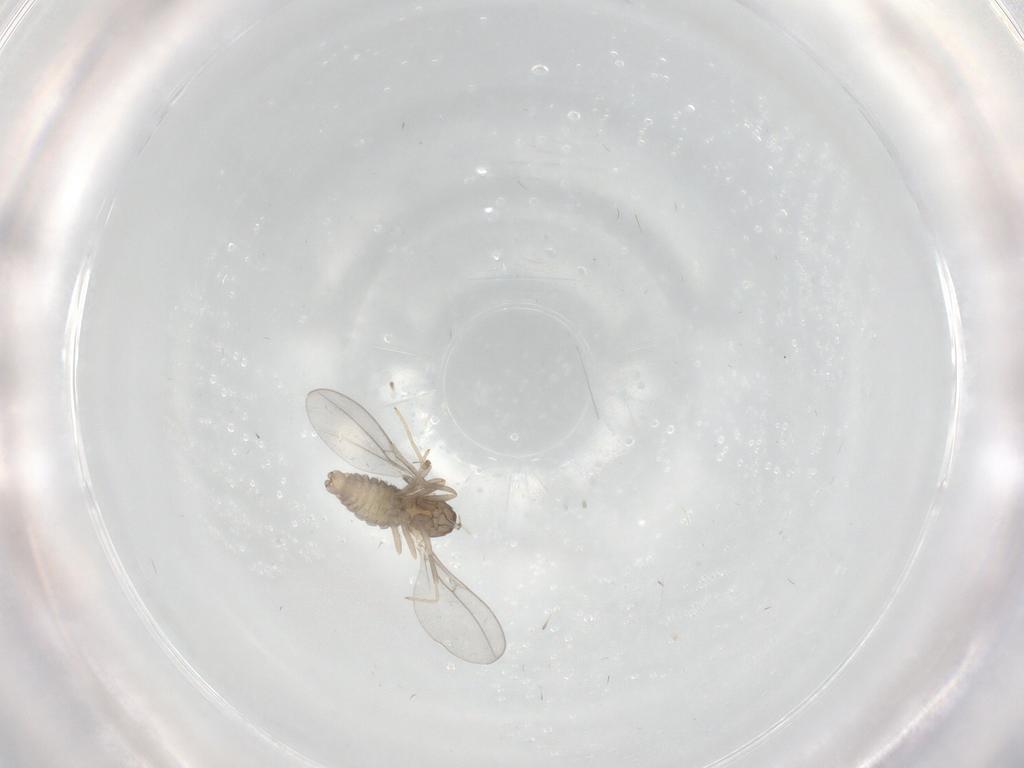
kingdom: Animalia
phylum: Arthropoda
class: Insecta
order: Diptera
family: Cecidomyiidae
